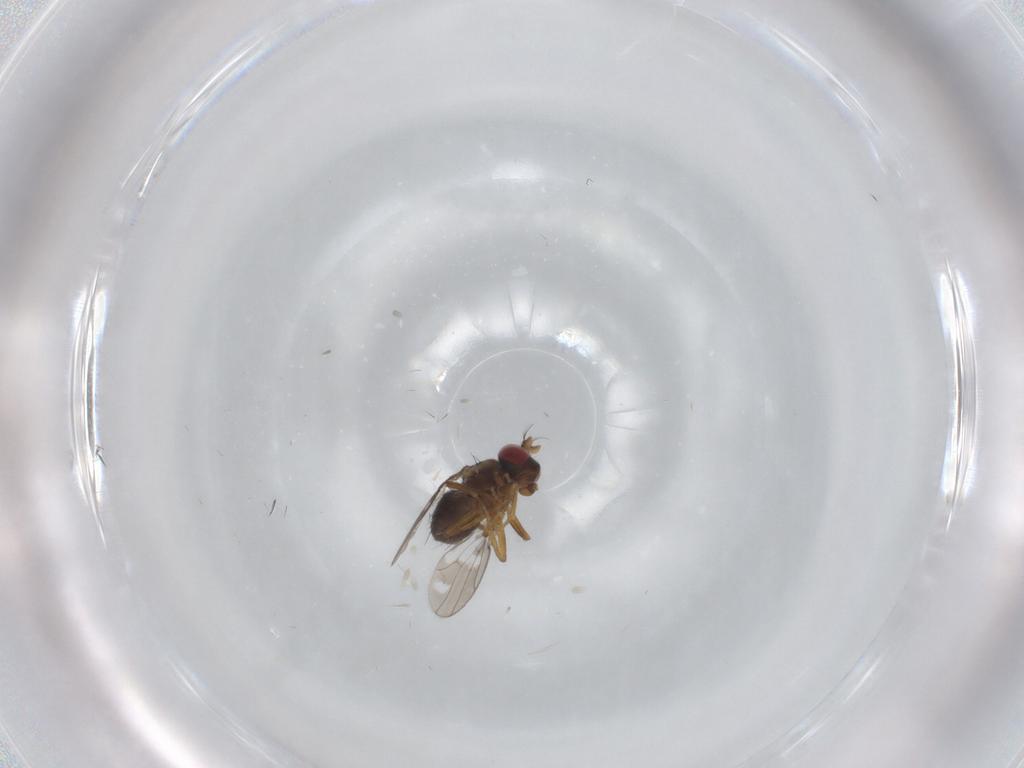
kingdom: Animalia
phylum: Arthropoda
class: Insecta
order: Diptera
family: Ephydridae
